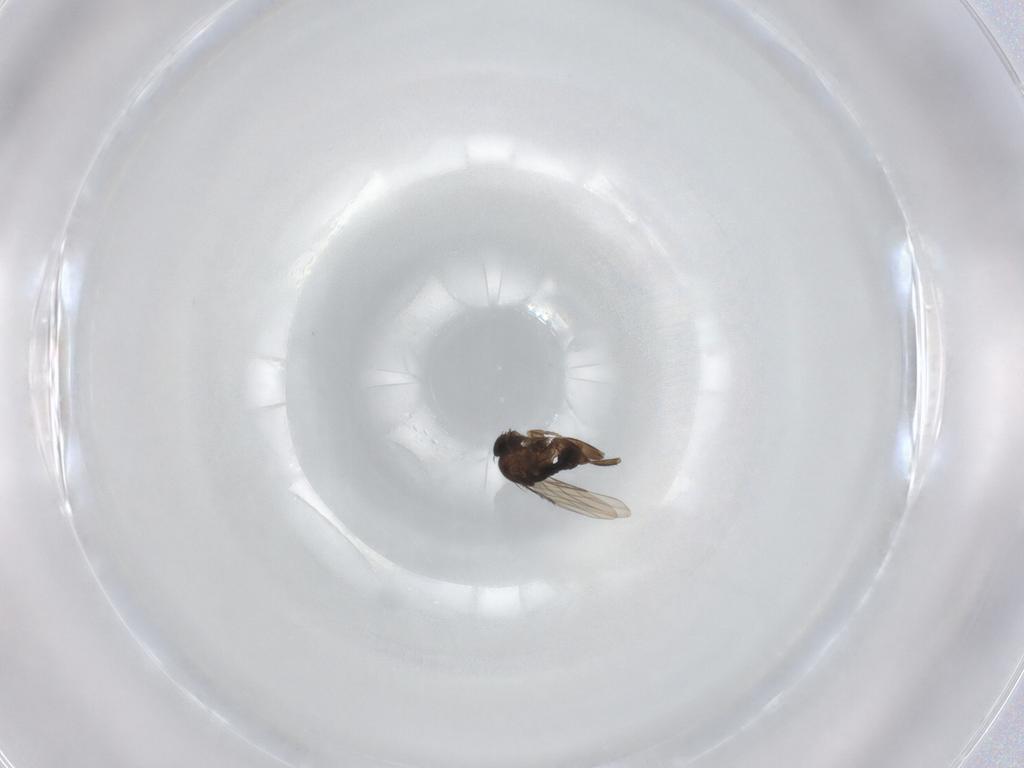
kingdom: Animalia
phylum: Arthropoda
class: Insecta
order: Diptera
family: Phoridae
